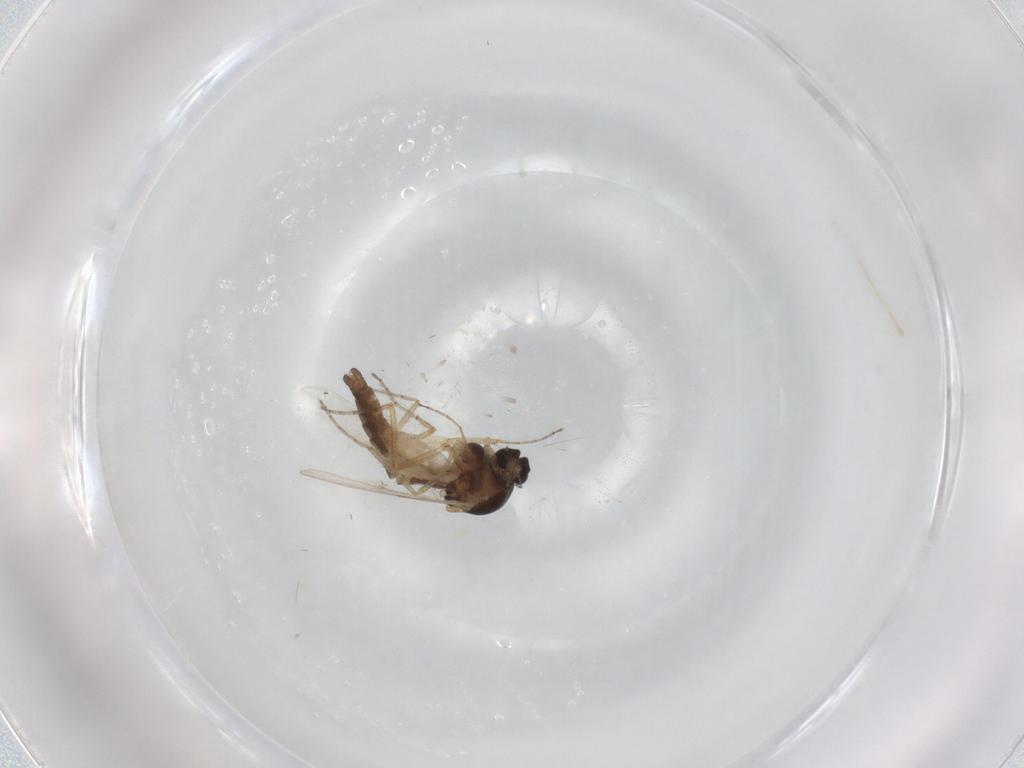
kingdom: Animalia
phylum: Arthropoda
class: Insecta
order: Diptera
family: Ceratopogonidae
